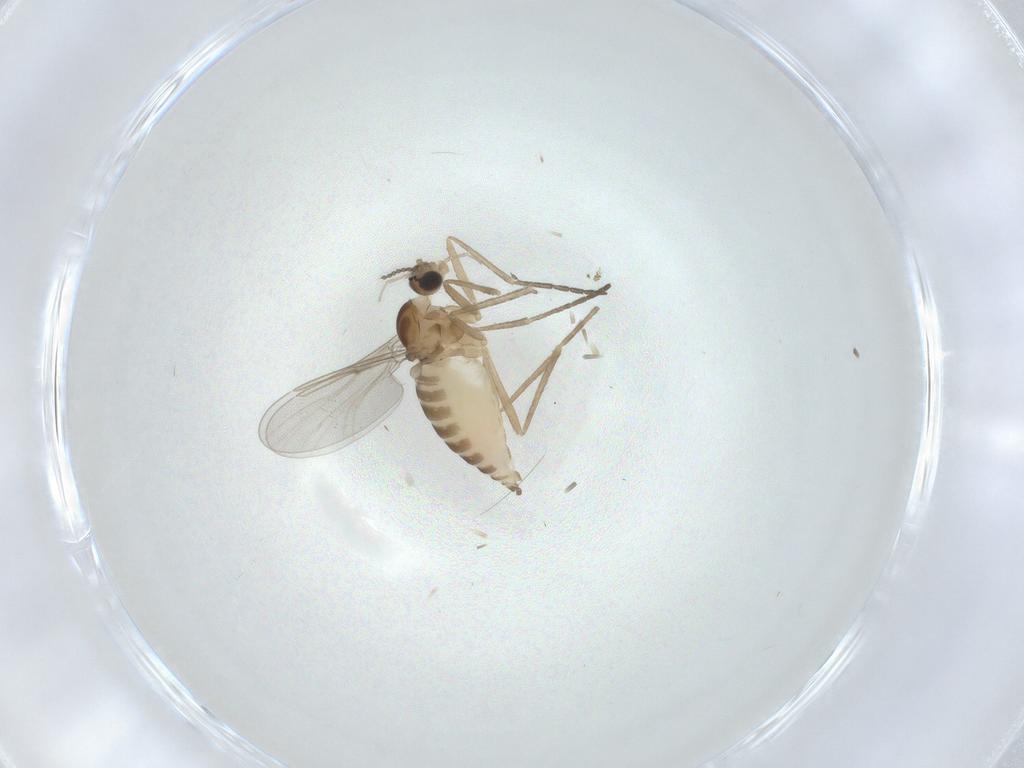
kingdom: Animalia
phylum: Arthropoda
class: Insecta
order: Diptera
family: Cecidomyiidae
